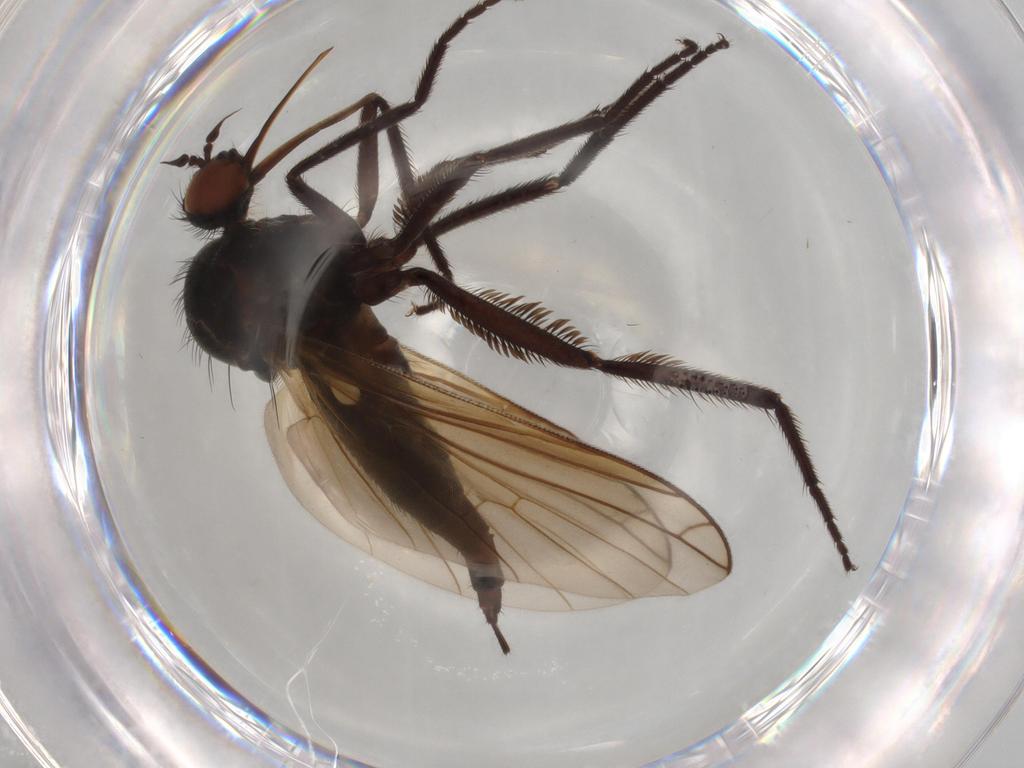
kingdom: Animalia
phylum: Arthropoda
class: Insecta
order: Diptera
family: Empididae
